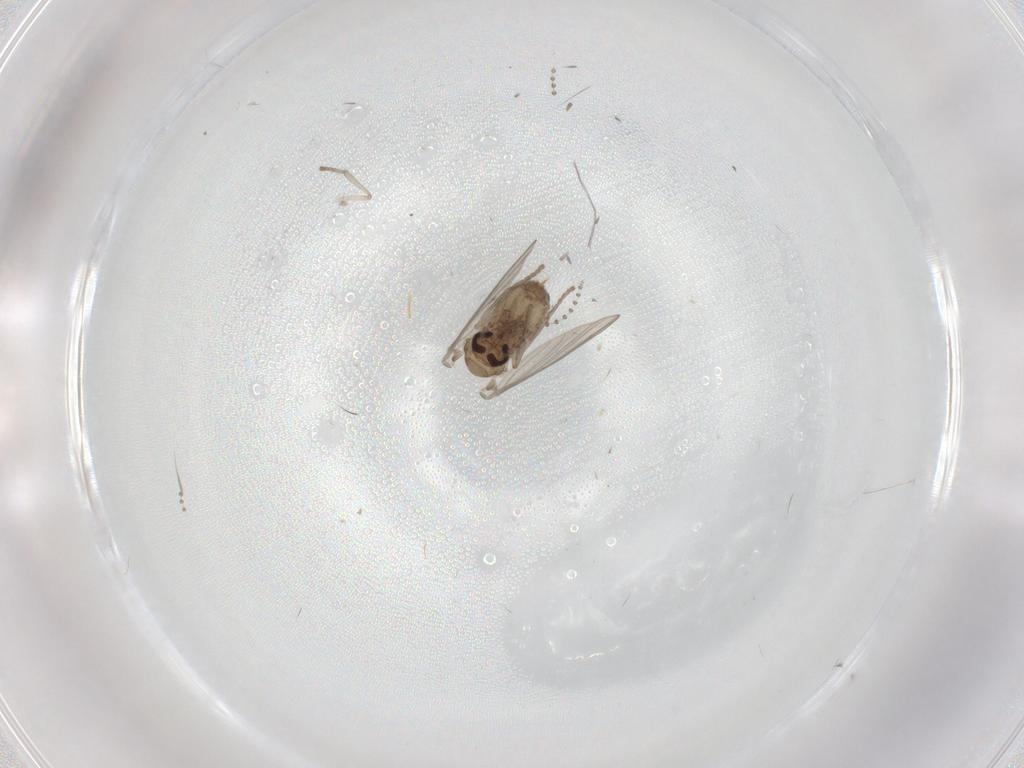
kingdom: Animalia
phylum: Arthropoda
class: Insecta
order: Diptera
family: Psychodidae
